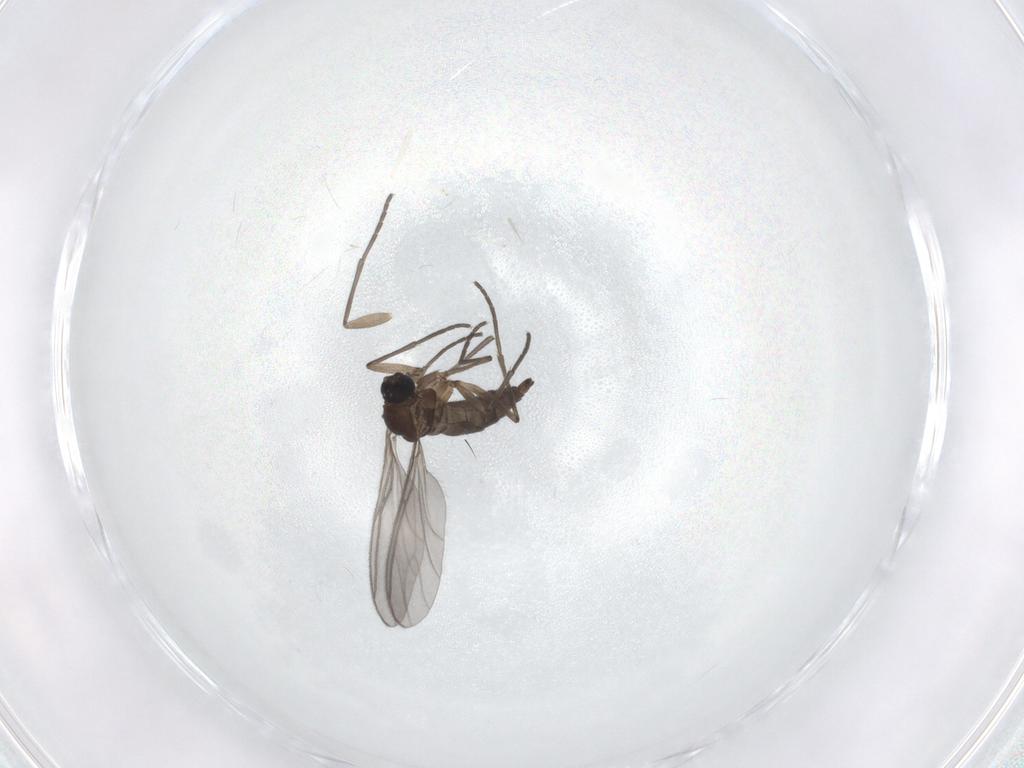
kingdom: Animalia
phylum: Arthropoda
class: Insecta
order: Diptera
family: Sciaridae
